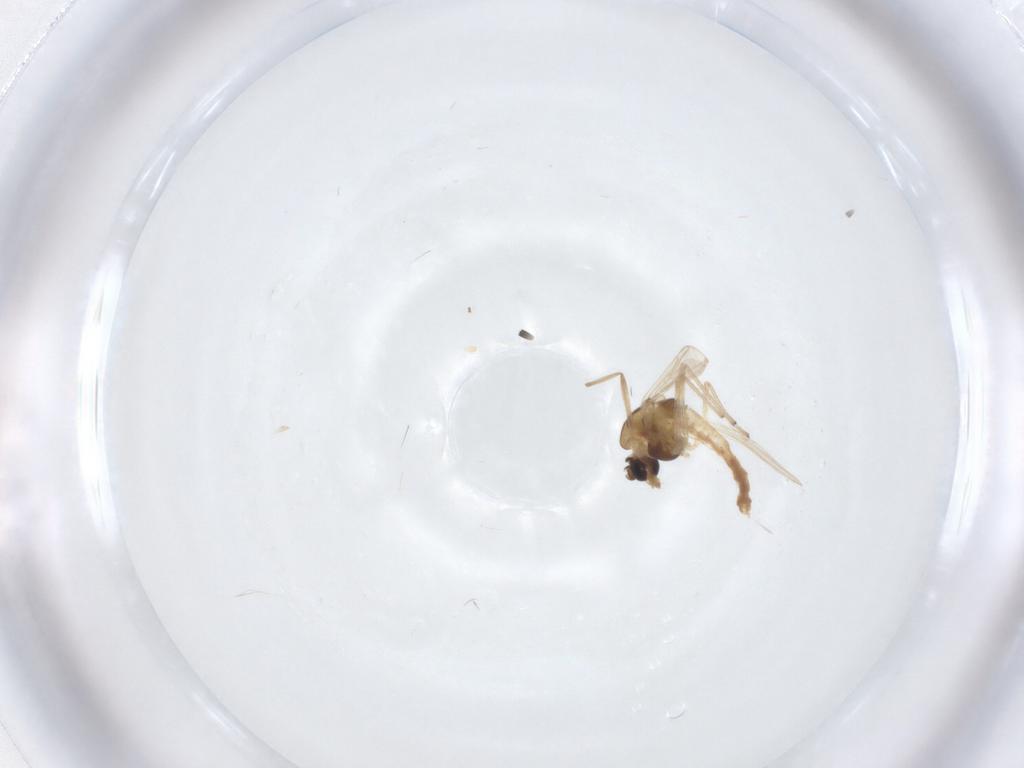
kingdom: Animalia
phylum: Arthropoda
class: Insecta
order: Diptera
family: Chironomidae
